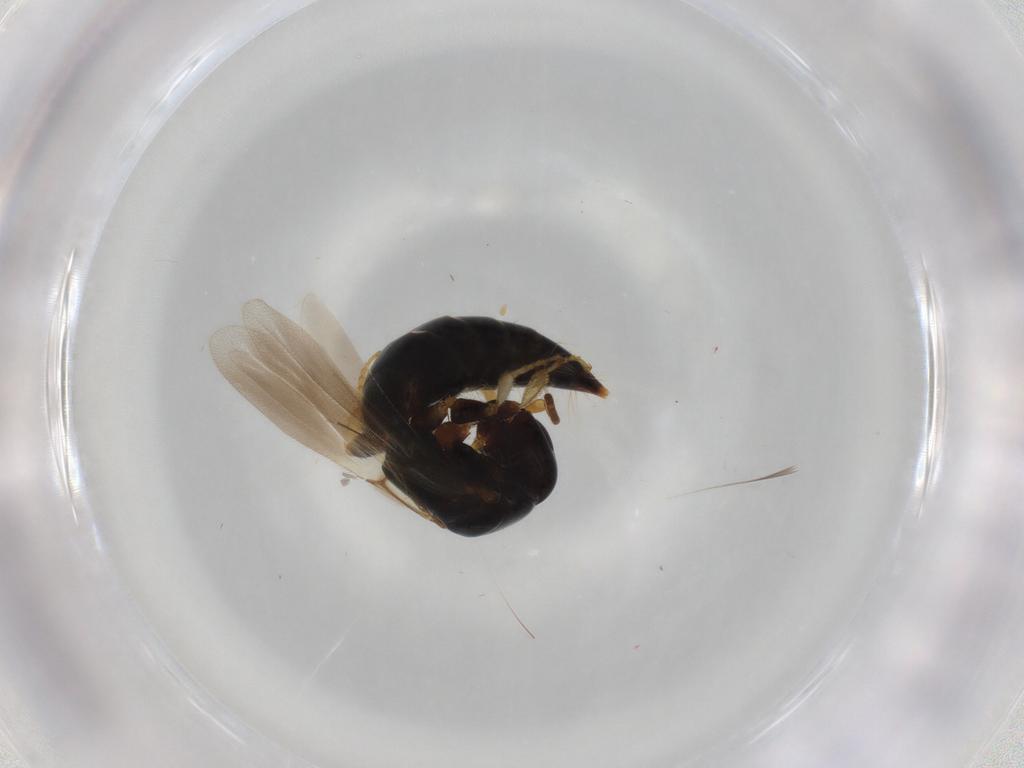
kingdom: Animalia
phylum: Arthropoda
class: Insecta
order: Hymenoptera
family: Bethylidae
